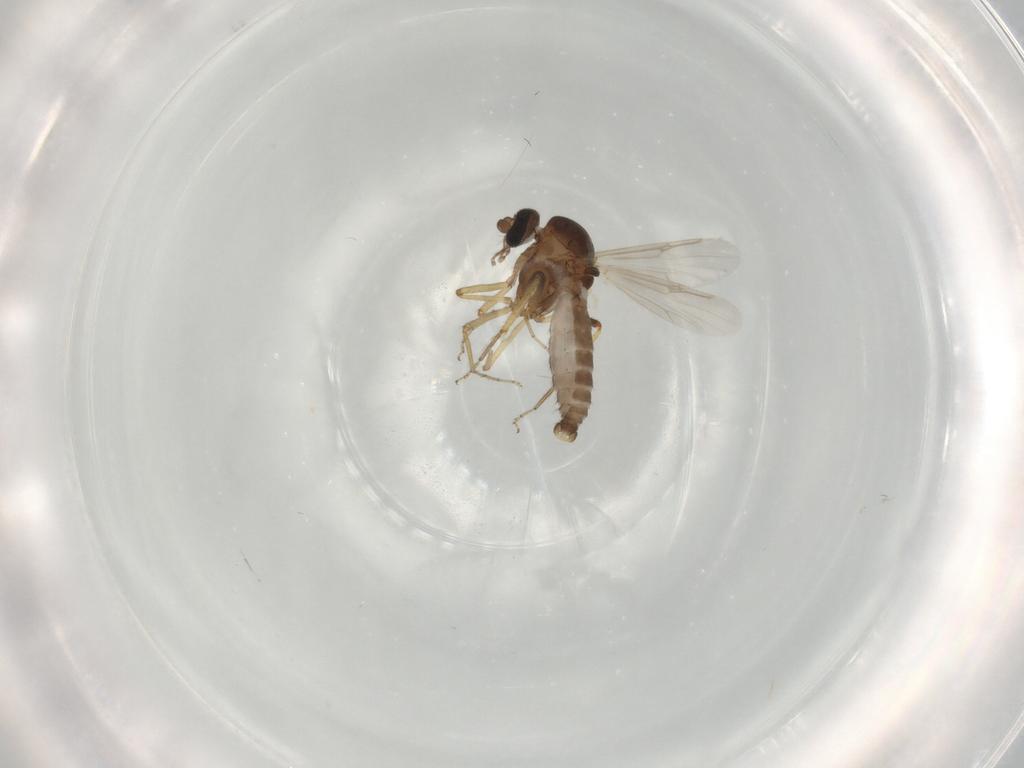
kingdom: Animalia
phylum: Arthropoda
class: Insecta
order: Diptera
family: Ceratopogonidae
